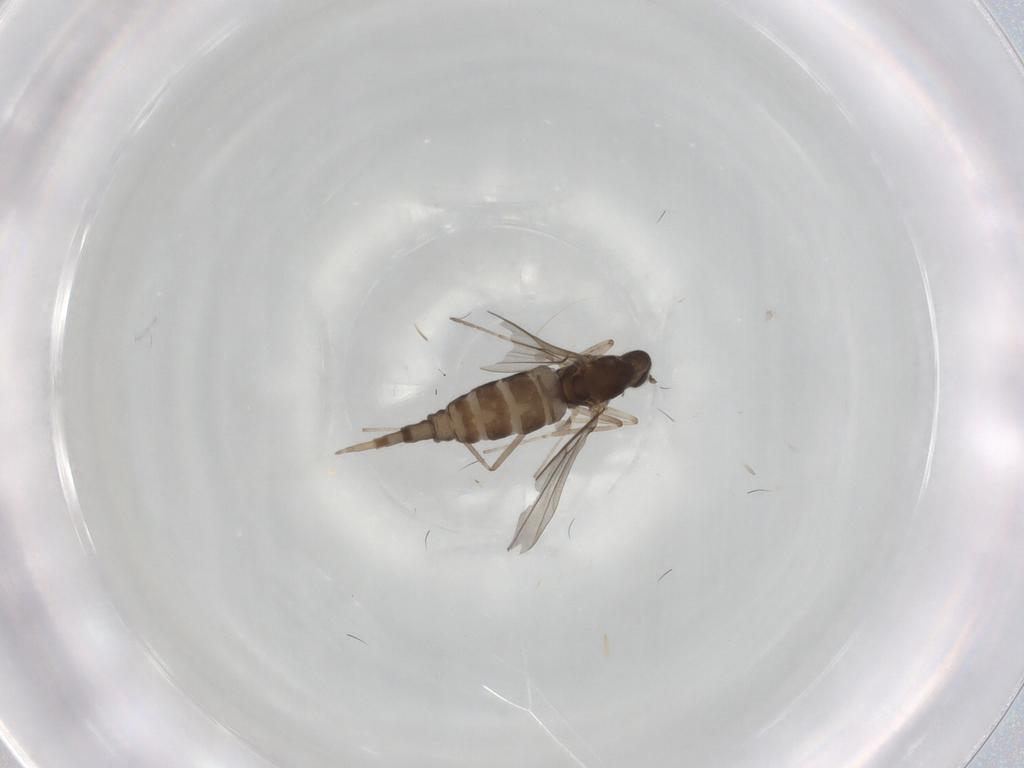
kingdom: Animalia
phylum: Arthropoda
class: Insecta
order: Diptera
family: Cecidomyiidae
